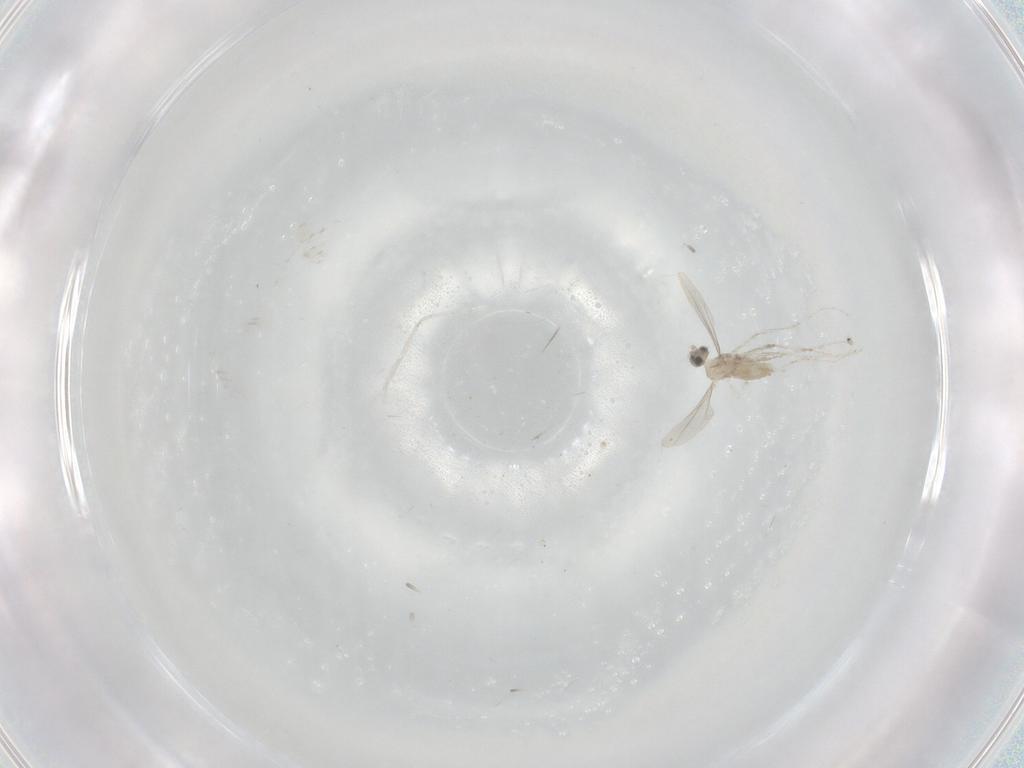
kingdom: Animalia
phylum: Arthropoda
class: Insecta
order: Diptera
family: Cecidomyiidae
